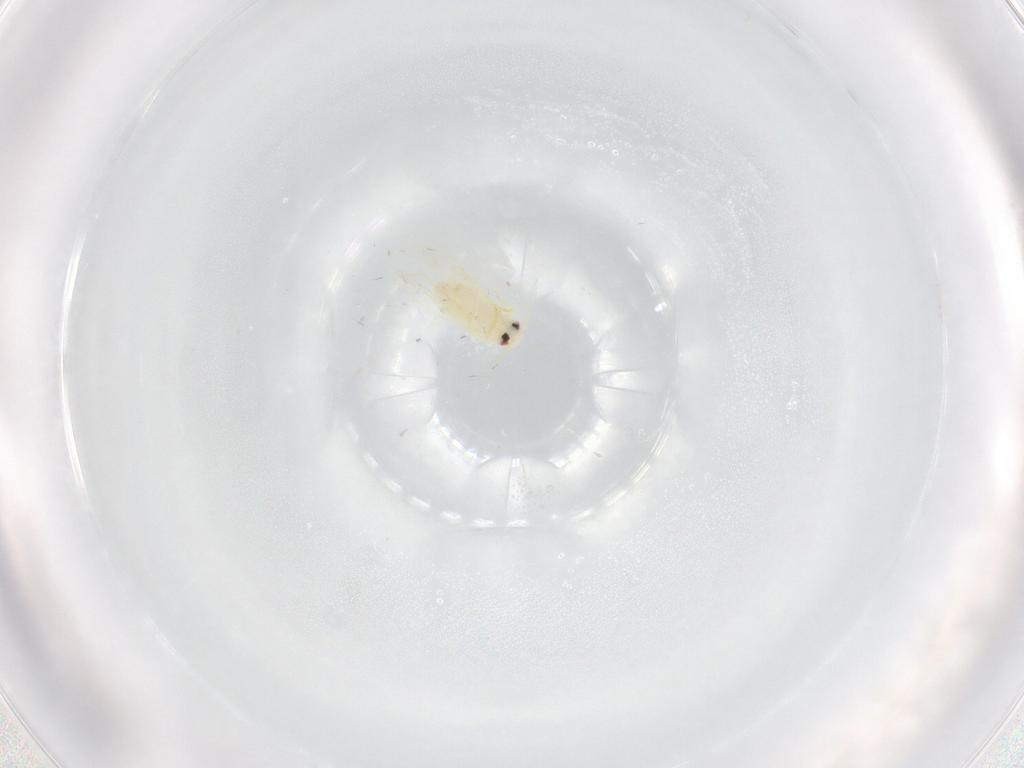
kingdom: Animalia
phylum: Arthropoda
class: Insecta
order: Hemiptera
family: Aleyrodidae
